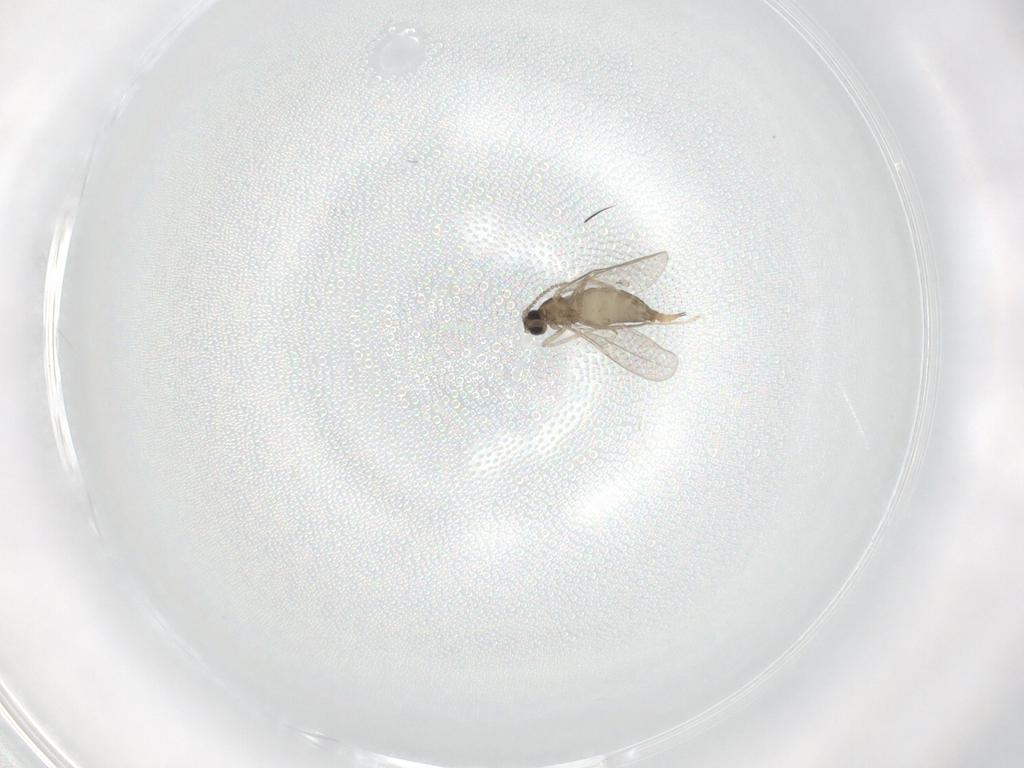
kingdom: Animalia
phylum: Arthropoda
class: Insecta
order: Diptera
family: Cecidomyiidae
